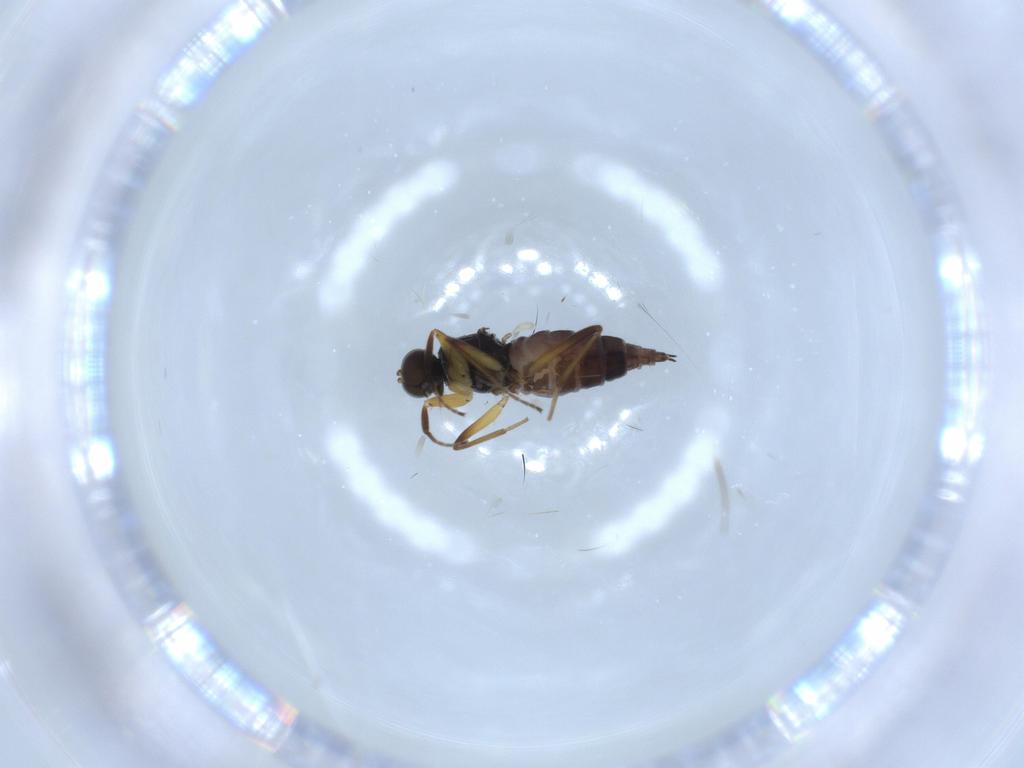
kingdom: Animalia
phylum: Arthropoda
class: Insecta
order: Diptera
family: Hybotidae
